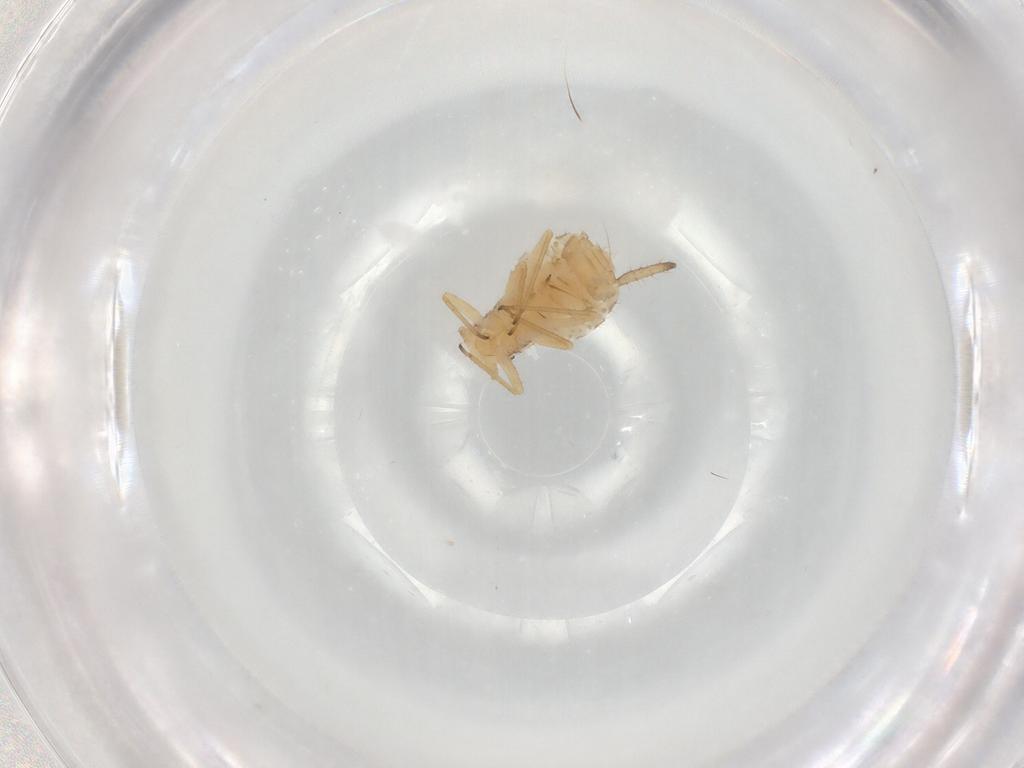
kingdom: Animalia
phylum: Arthropoda
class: Insecta
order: Hemiptera
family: Aphididae
